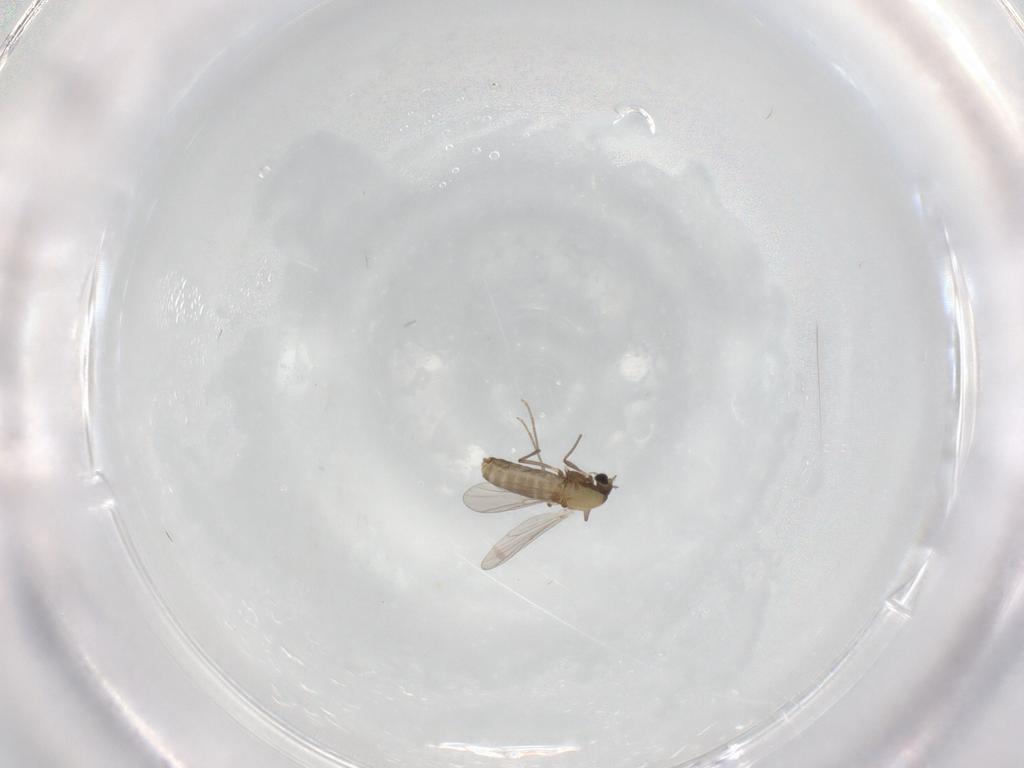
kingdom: Animalia
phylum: Arthropoda
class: Insecta
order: Diptera
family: Chironomidae
